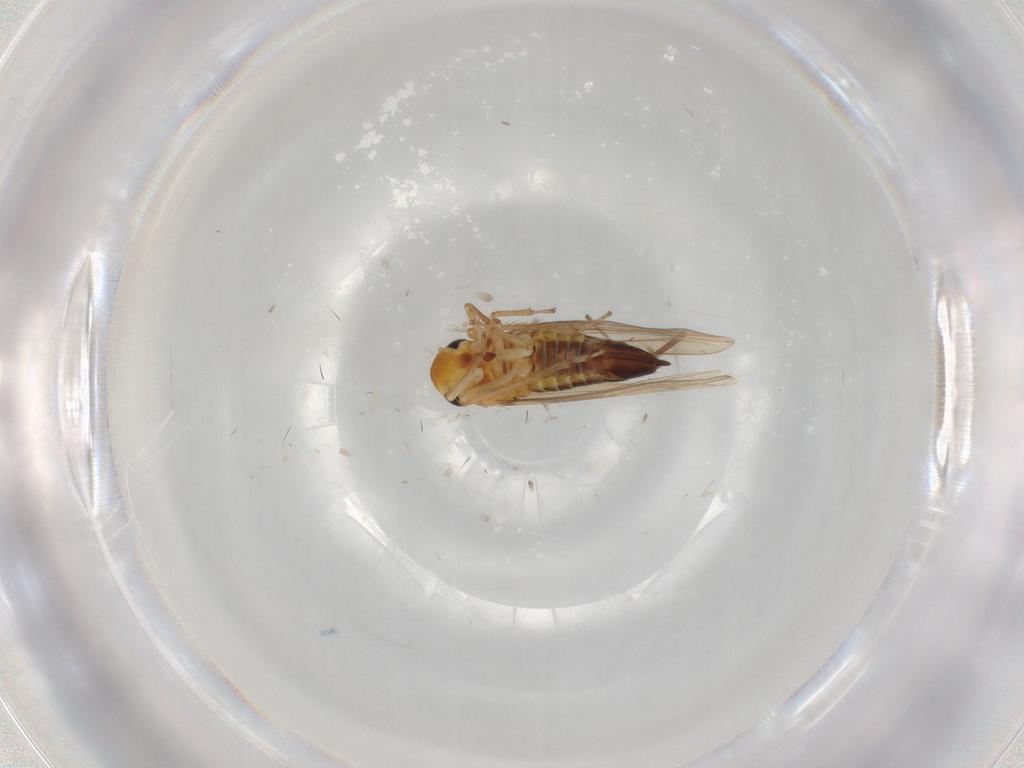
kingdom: Animalia
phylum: Arthropoda
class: Insecta
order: Hemiptera
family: Cicadellidae
